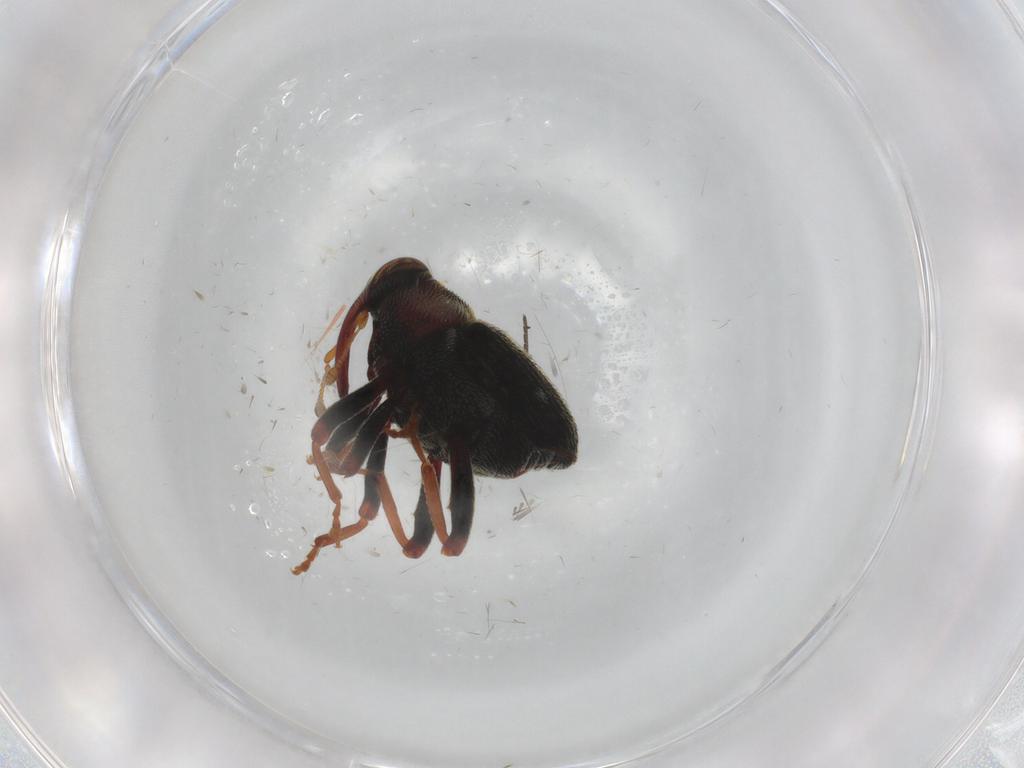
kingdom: Animalia
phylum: Arthropoda
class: Insecta
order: Coleoptera
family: Curculionidae
